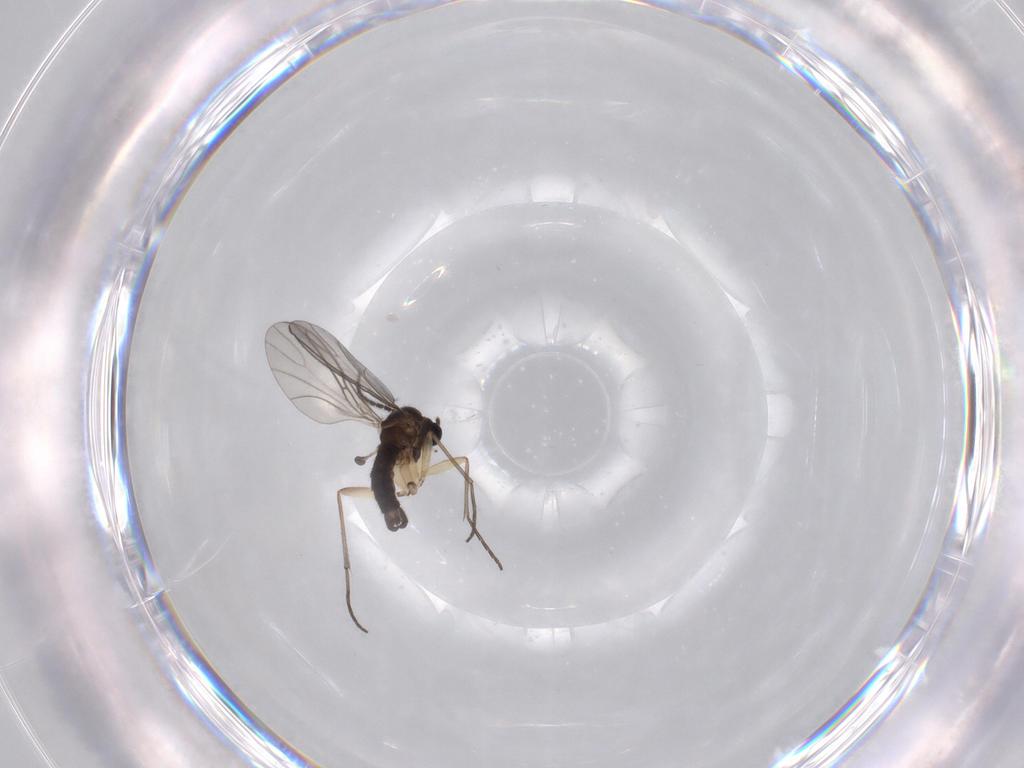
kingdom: Animalia
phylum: Arthropoda
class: Insecta
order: Diptera
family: Sciaridae
